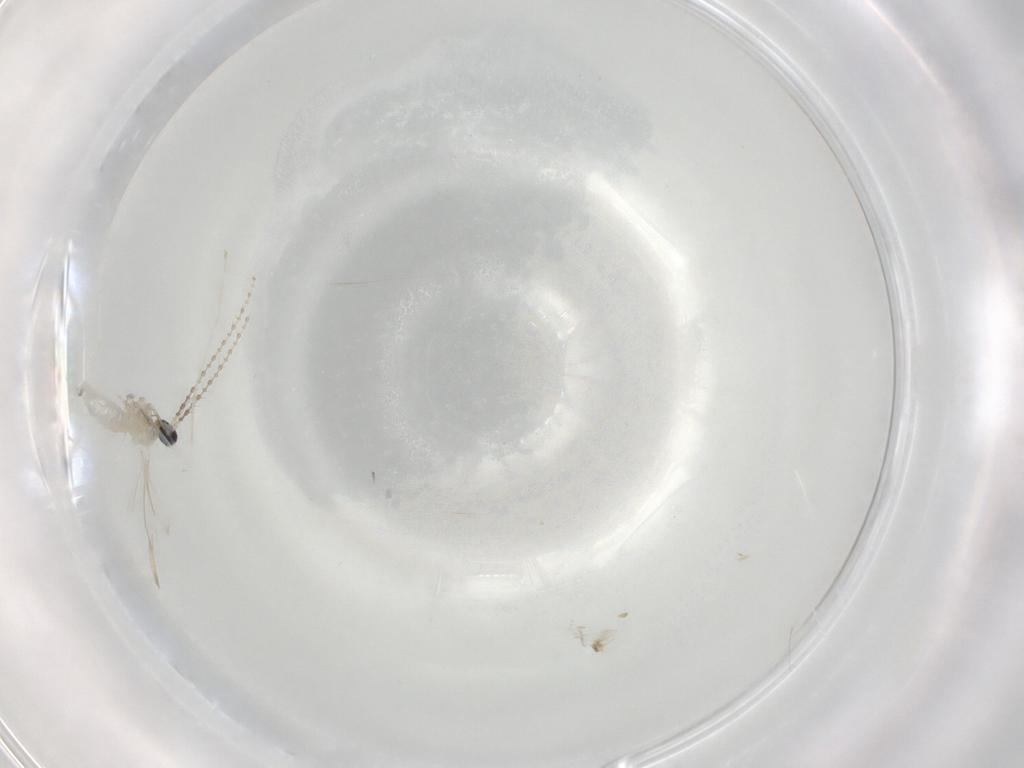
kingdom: Animalia
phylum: Arthropoda
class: Insecta
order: Diptera
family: Cecidomyiidae
